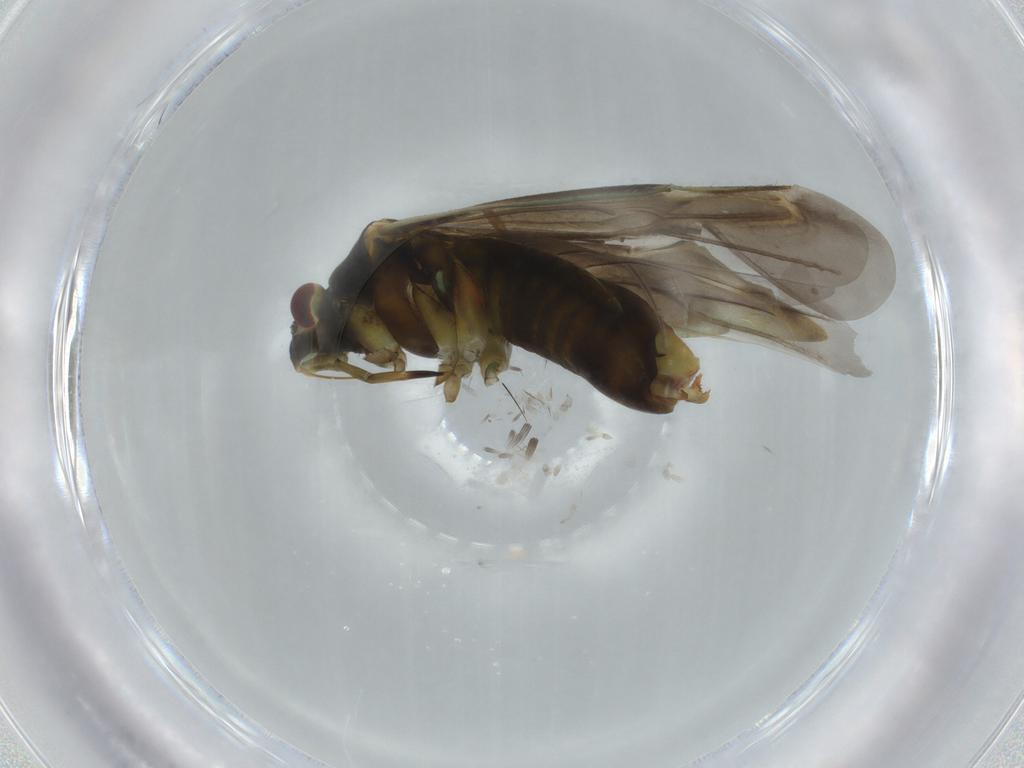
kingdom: Animalia
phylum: Arthropoda
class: Insecta
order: Hemiptera
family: Miridae
